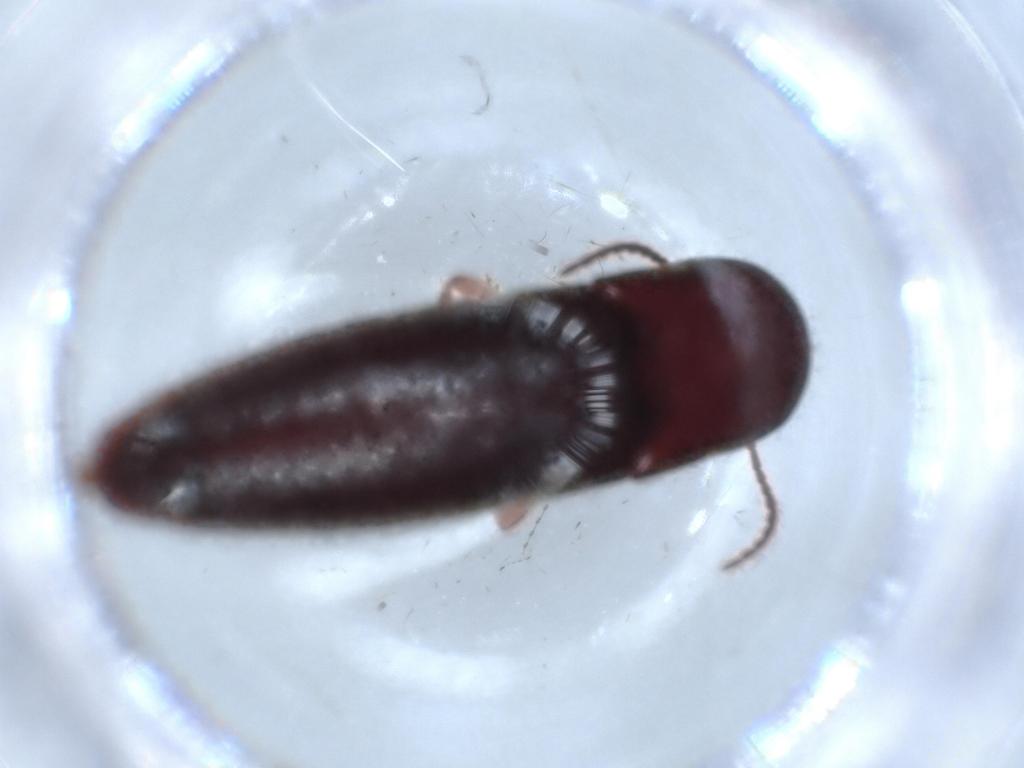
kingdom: Animalia
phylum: Arthropoda
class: Insecta
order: Coleoptera
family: Eucnemidae
